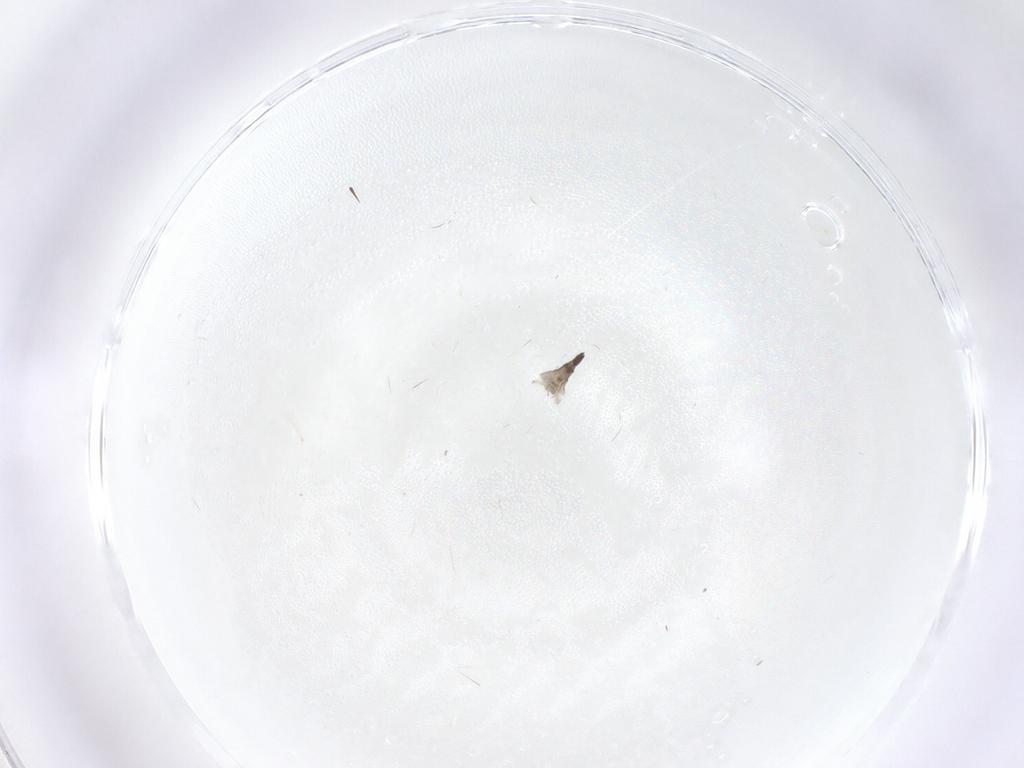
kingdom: Animalia
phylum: Arthropoda
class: Insecta
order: Diptera
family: Sciaridae
